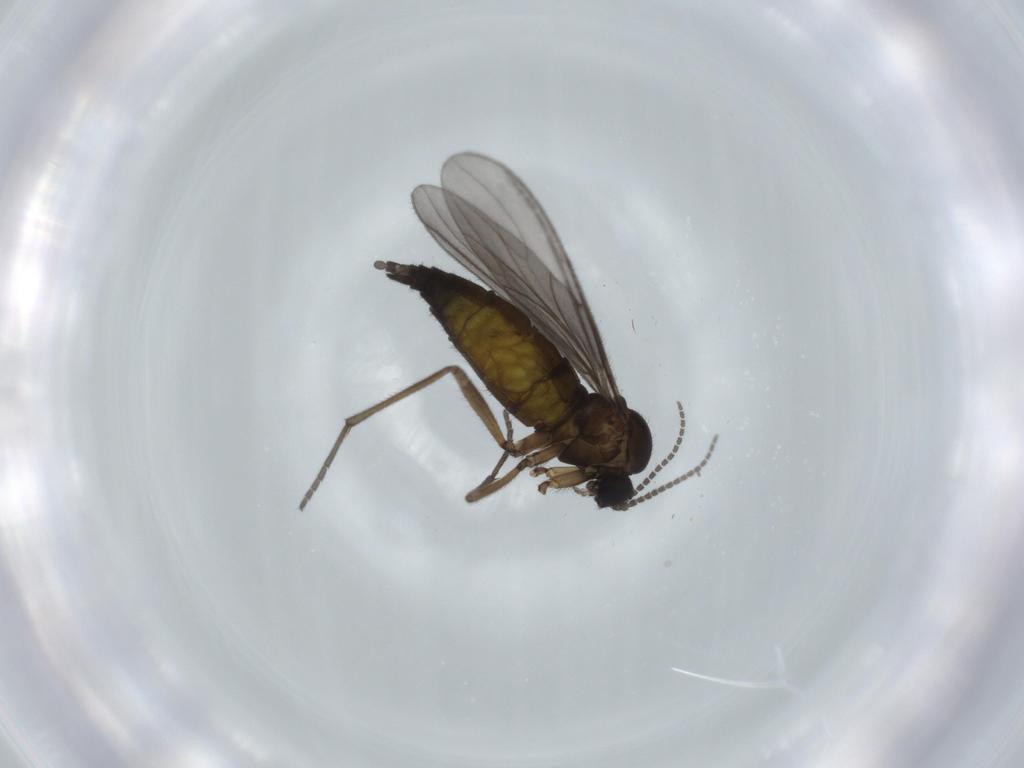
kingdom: Animalia
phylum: Arthropoda
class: Insecta
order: Diptera
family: Sciaridae
